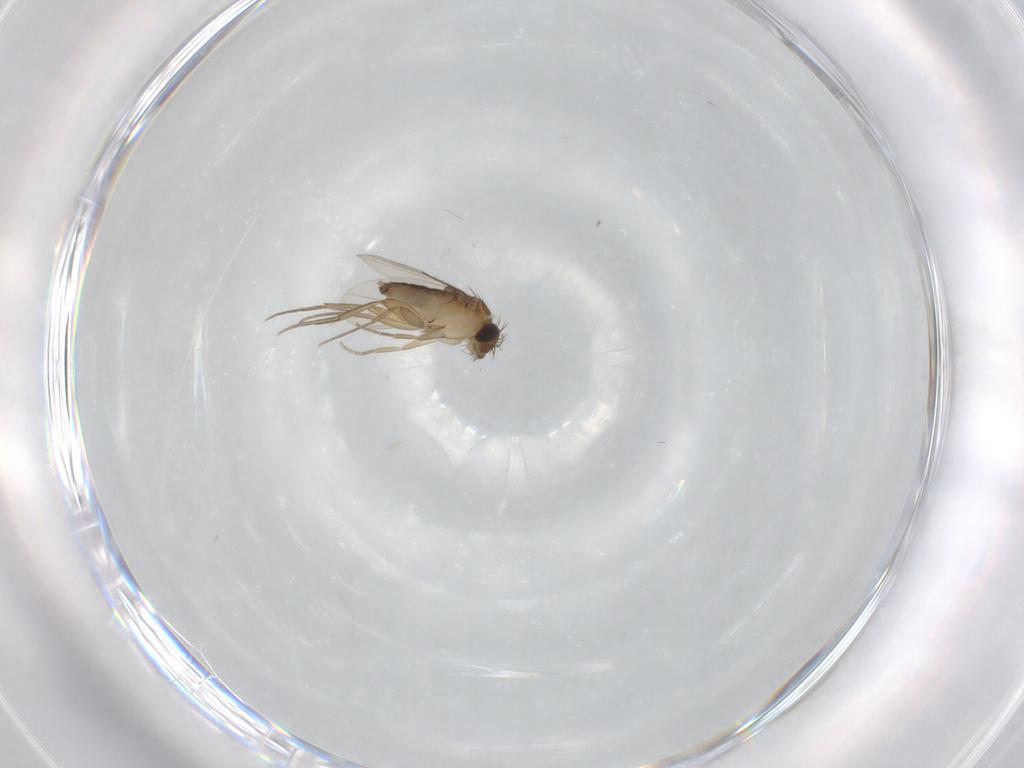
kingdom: Animalia
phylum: Arthropoda
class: Insecta
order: Diptera
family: Phoridae
